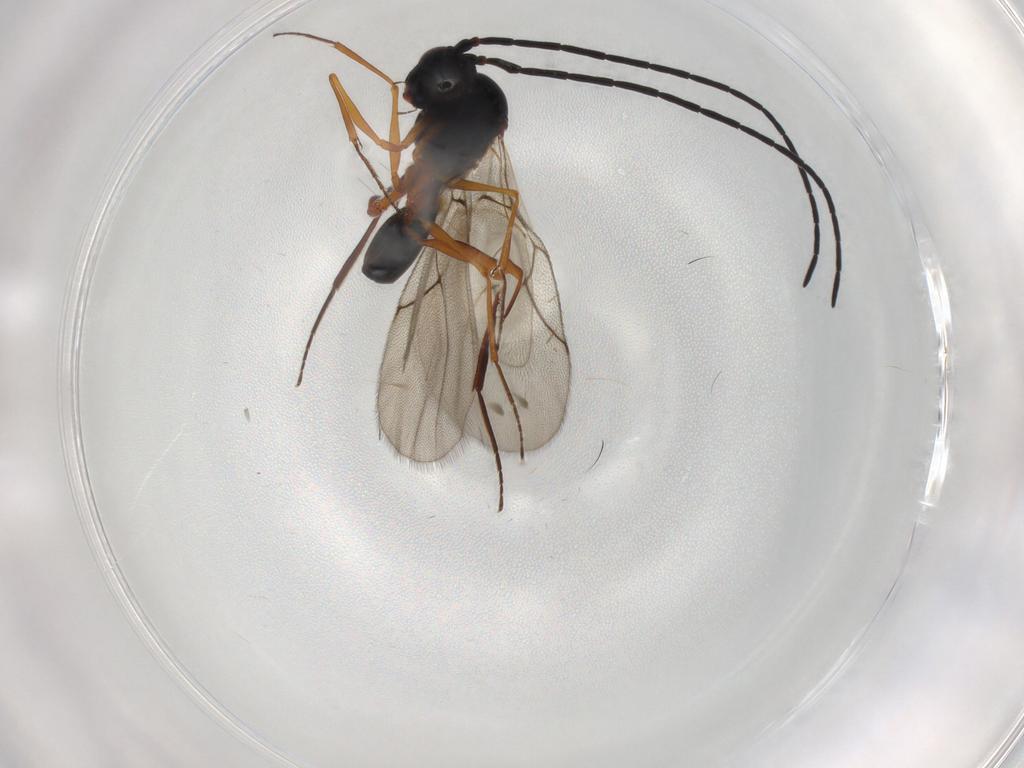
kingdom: Animalia
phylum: Arthropoda
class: Insecta
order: Hymenoptera
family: Figitidae
